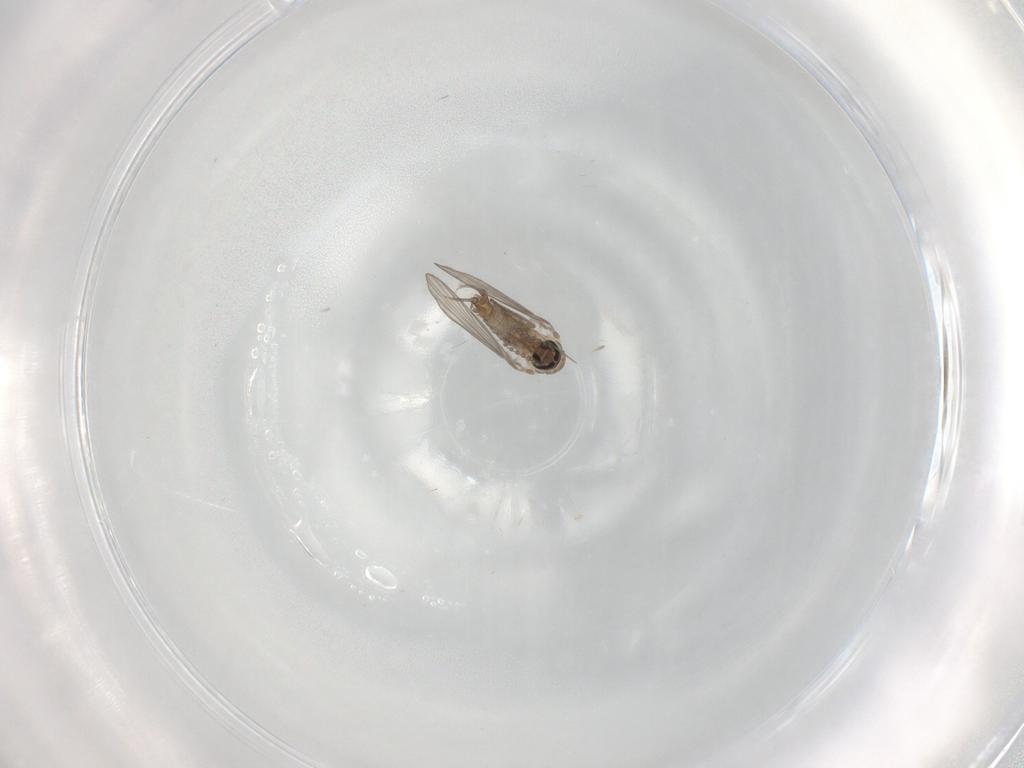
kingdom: Animalia
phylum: Arthropoda
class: Insecta
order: Diptera
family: Psychodidae
